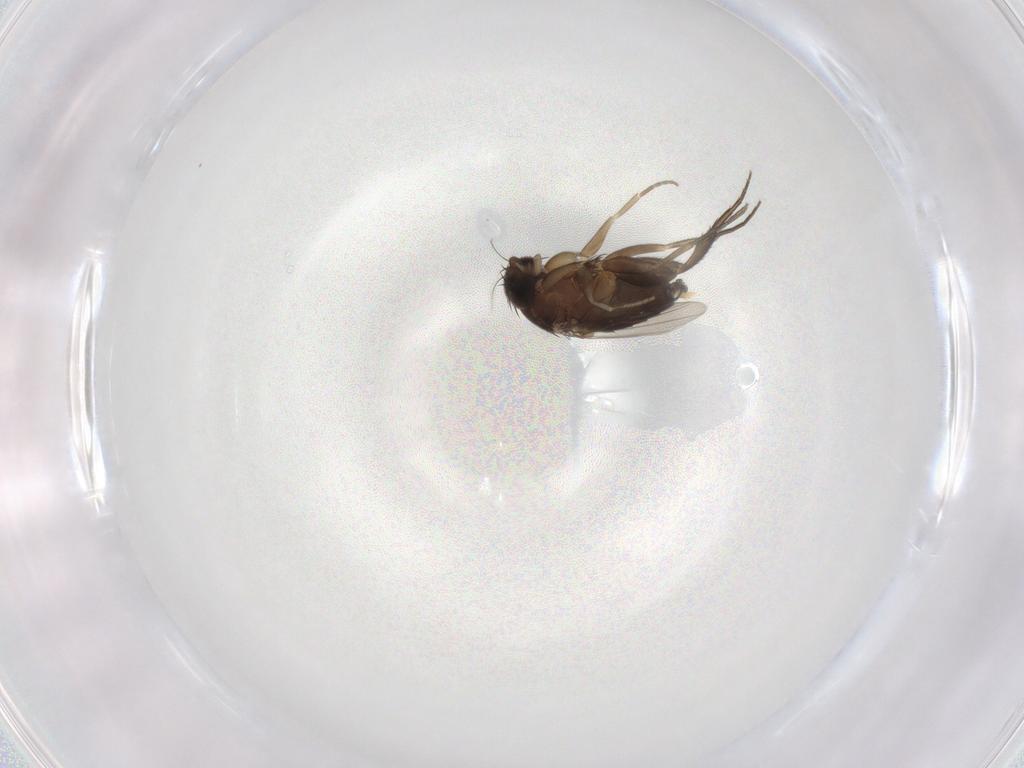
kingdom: Animalia
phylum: Arthropoda
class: Insecta
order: Diptera
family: Phoridae
